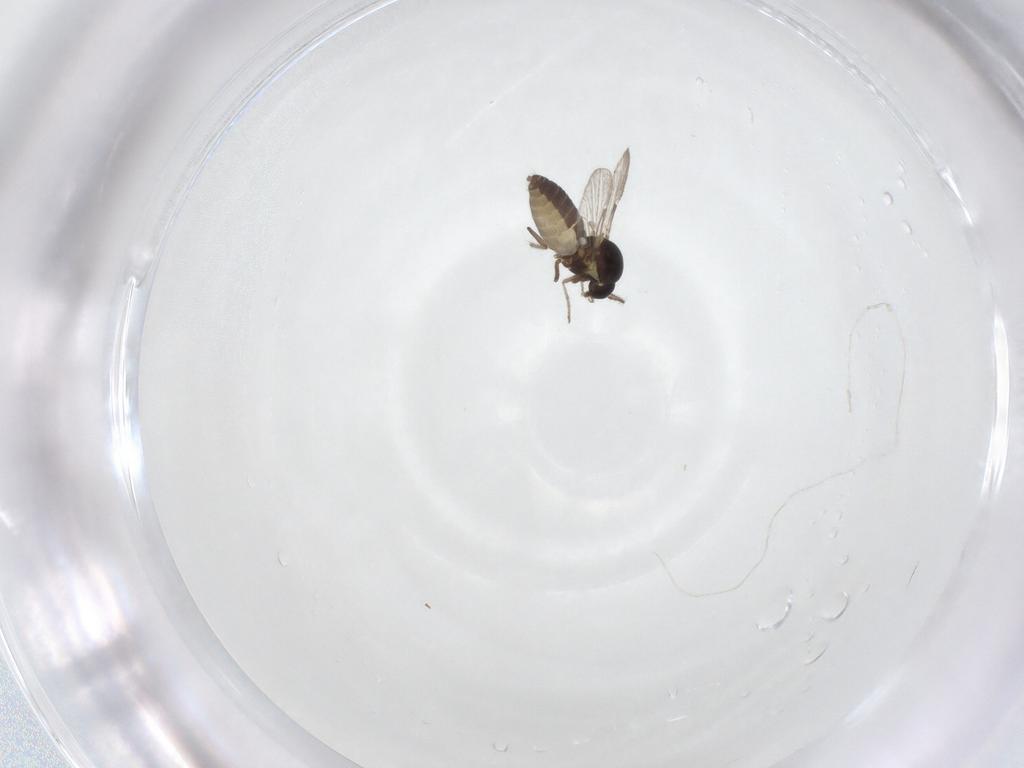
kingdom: Animalia
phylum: Arthropoda
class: Insecta
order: Diptera
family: Ceratopogonidae
